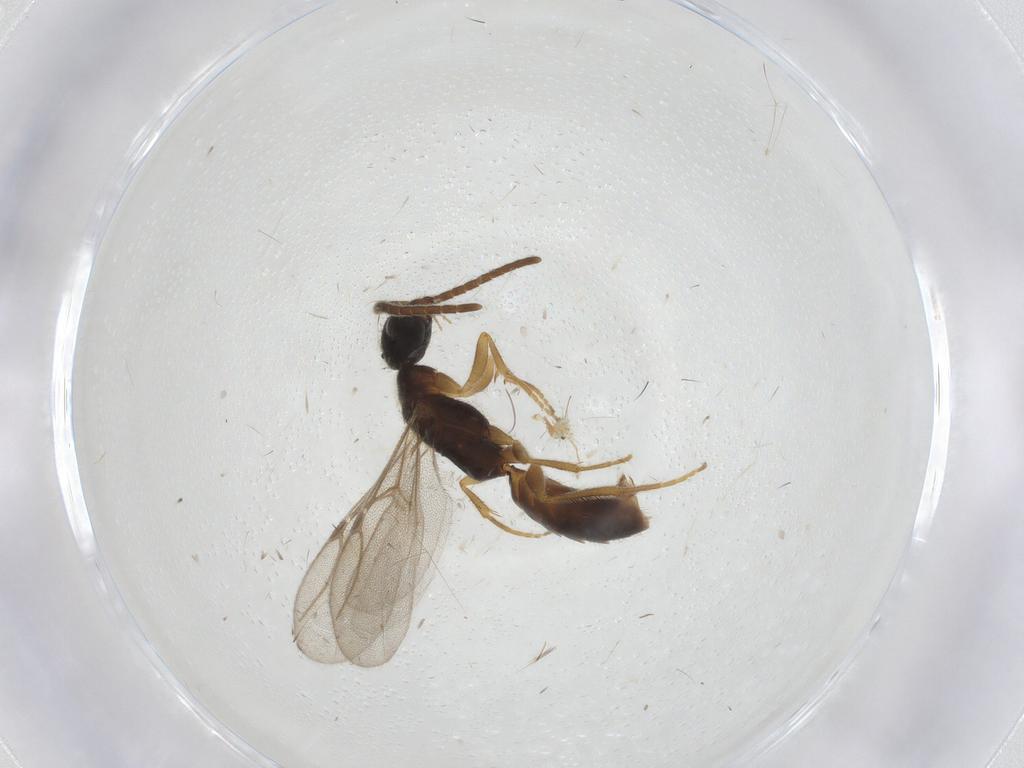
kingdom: Animalia
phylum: Arthropoda
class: Insecta
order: Hymenoptera
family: Bethylidae
